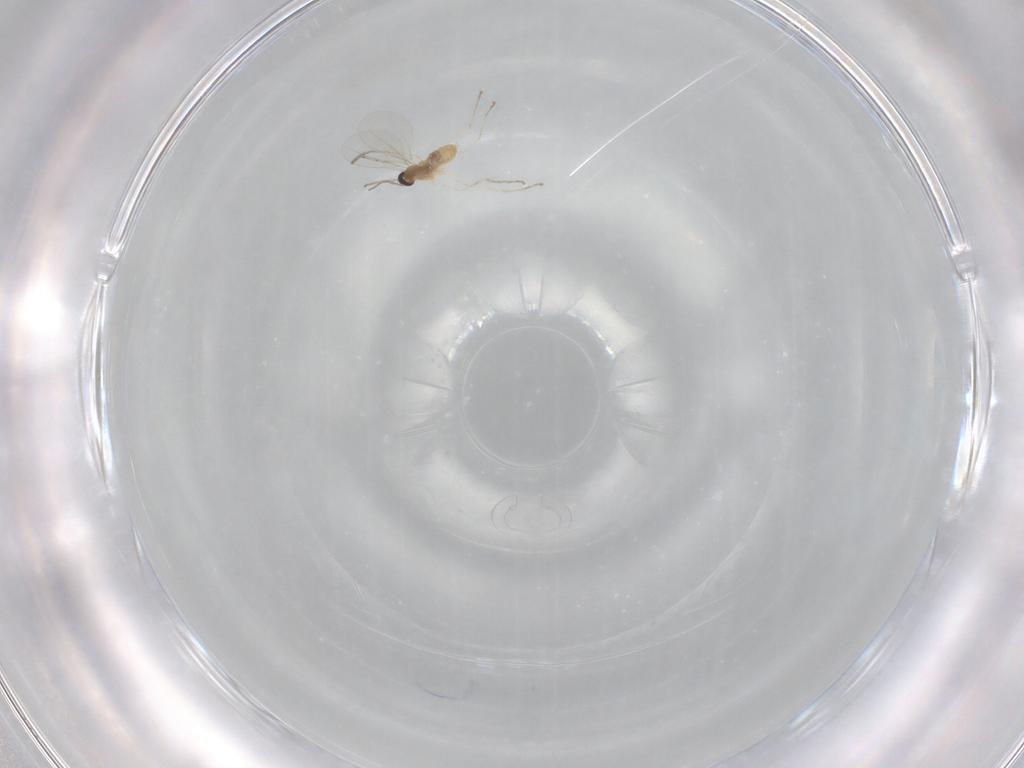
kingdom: Animalia
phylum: Arthropoda
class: Insecta
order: Diptera
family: Cecidomyiidae
